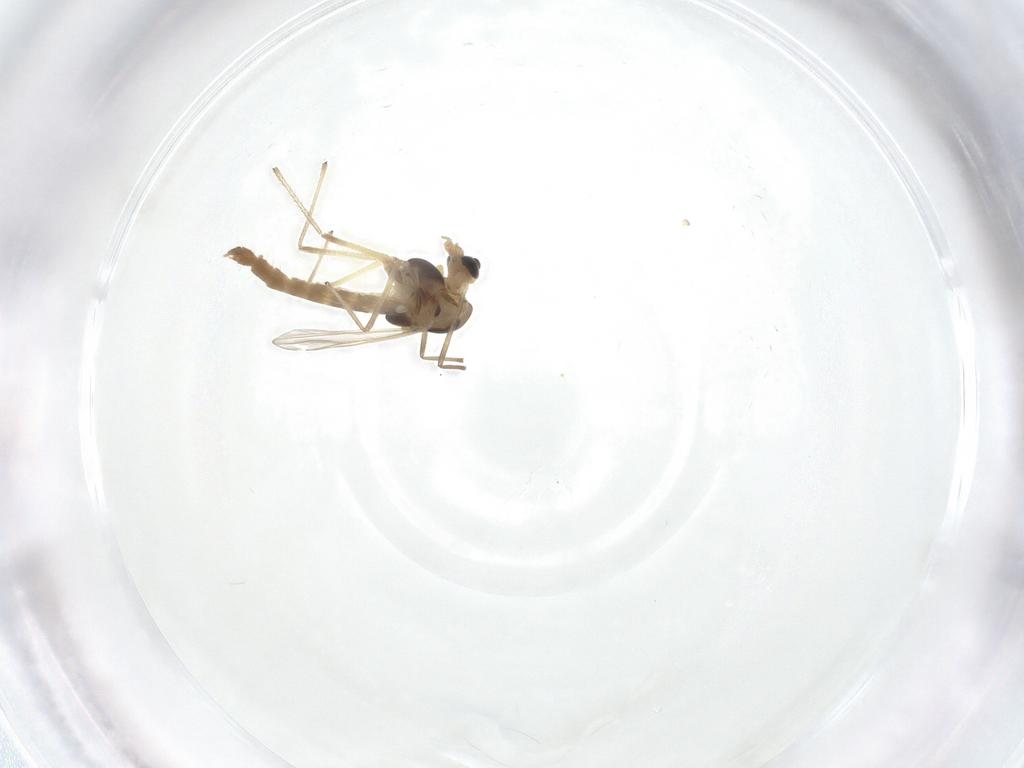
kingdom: Animalia
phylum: Arthropoda
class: Insecta
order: Diptera
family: Chironomidae
